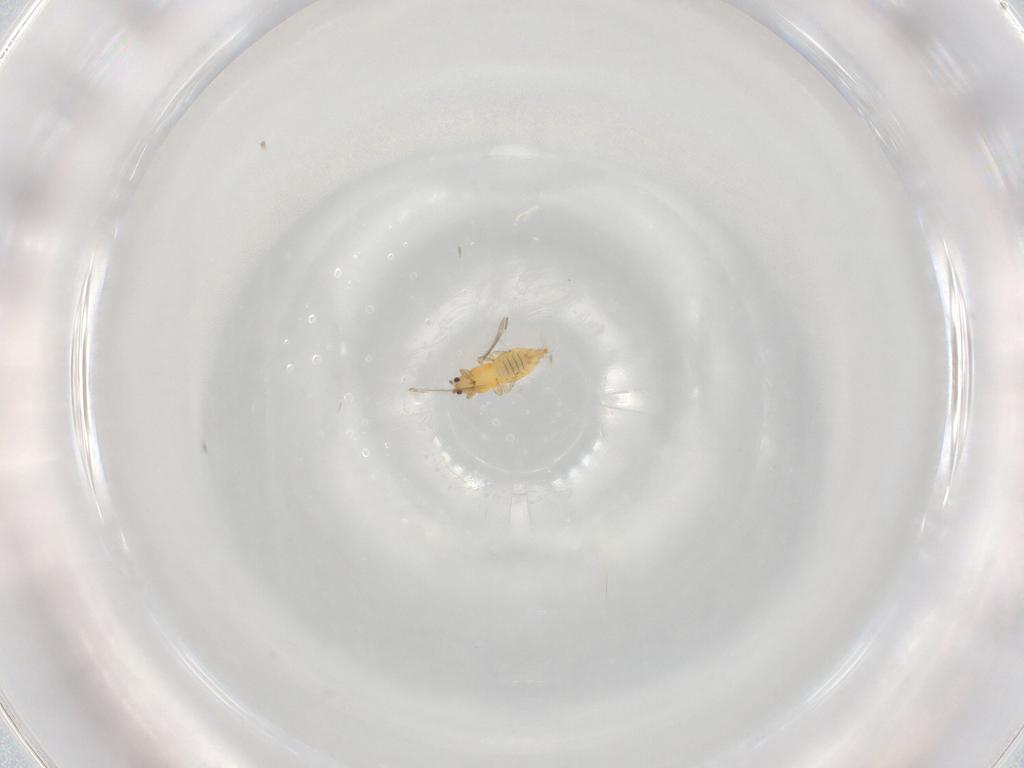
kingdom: Animalia
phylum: Arthropoda
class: Insecta
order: Thysanoptera
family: Thripidae
